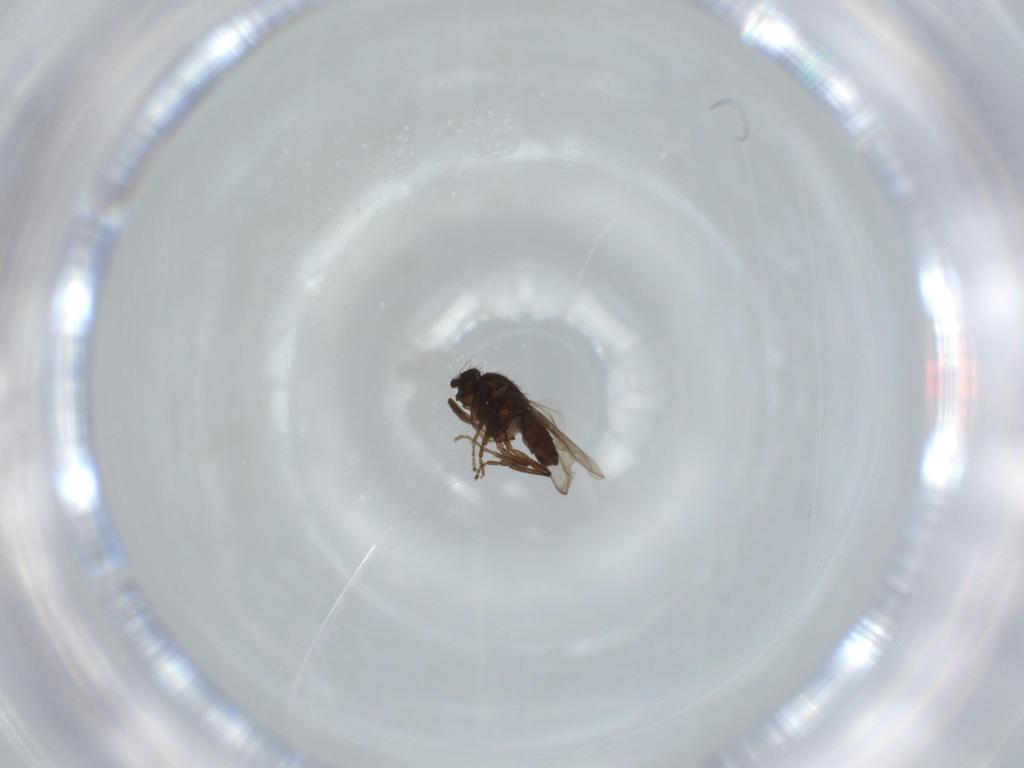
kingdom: Animalia
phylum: Arthropoda
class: Insecta
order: Diptera
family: Sphaeroceridae
